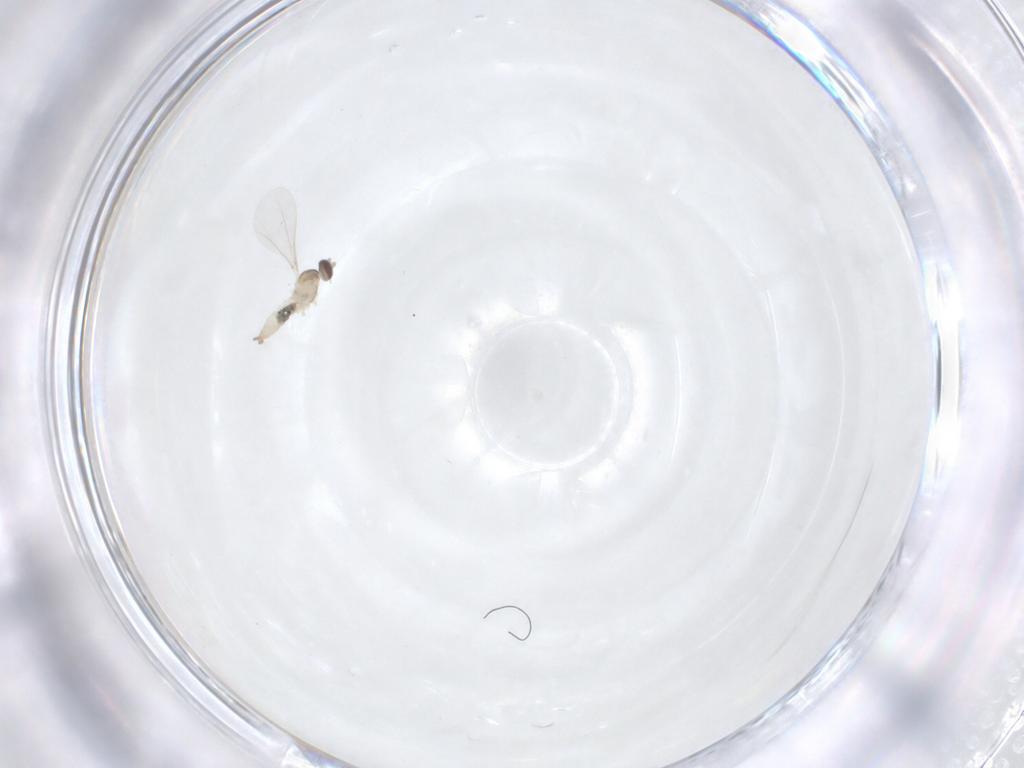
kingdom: Animalia
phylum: Arthropoda
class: Insecta
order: Diptera
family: Cecidomyiidae
